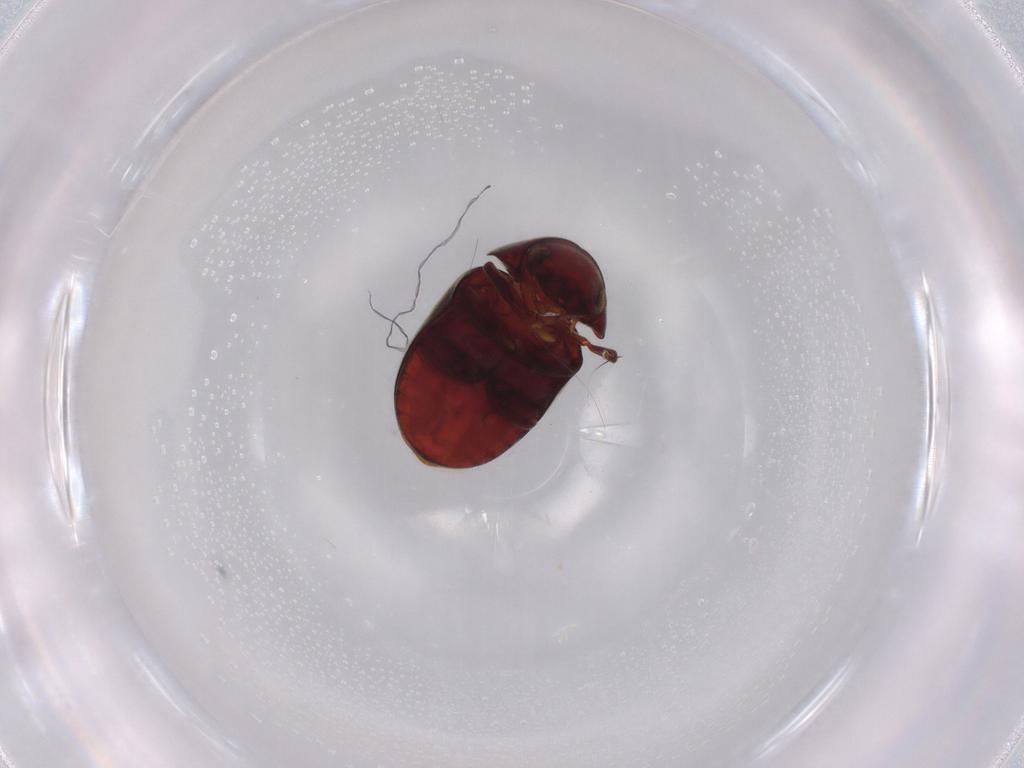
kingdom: Animalia
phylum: Arthropoda
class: Insecta
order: Coleoptera
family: Ptinidae
